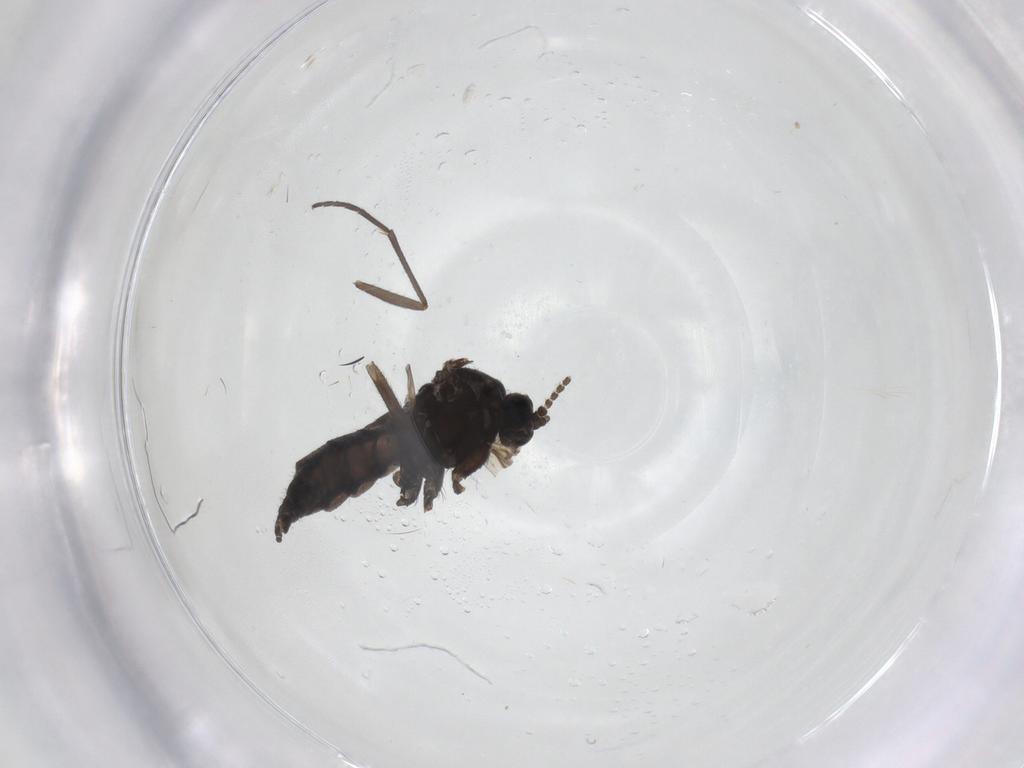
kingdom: Animalia
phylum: Arthropoda
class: Insecta
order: Diptera
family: Sciaridae
